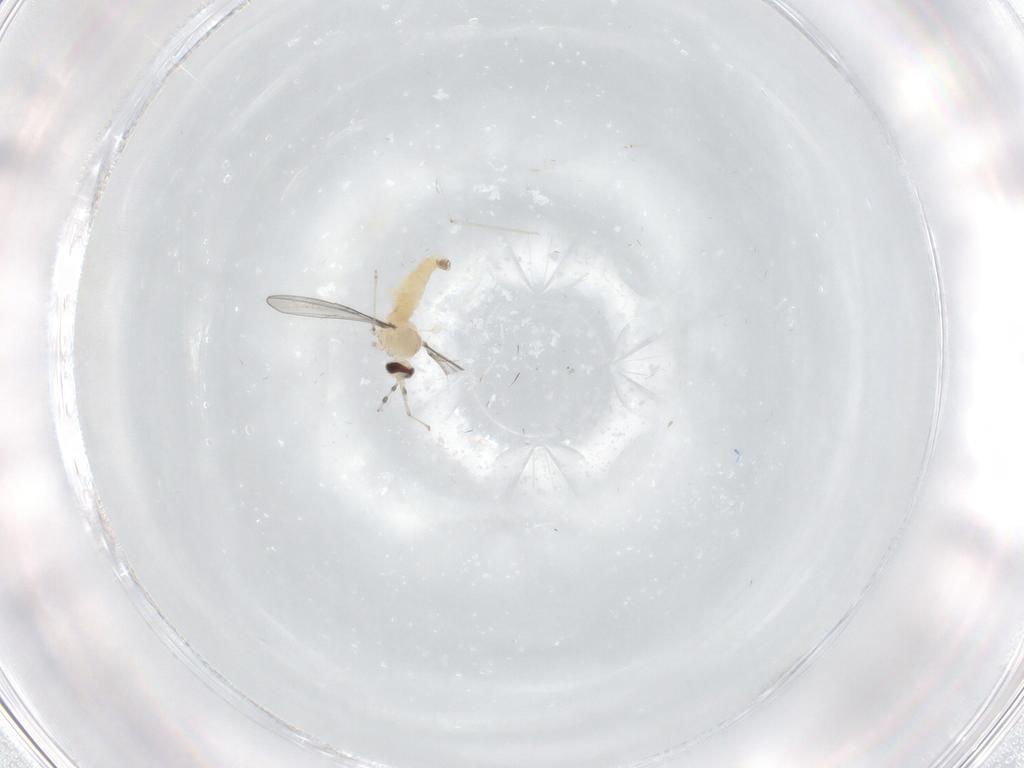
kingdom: Animalia
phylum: Arthropoda
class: Insecta
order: Diptera
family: Cecidomyiidae
